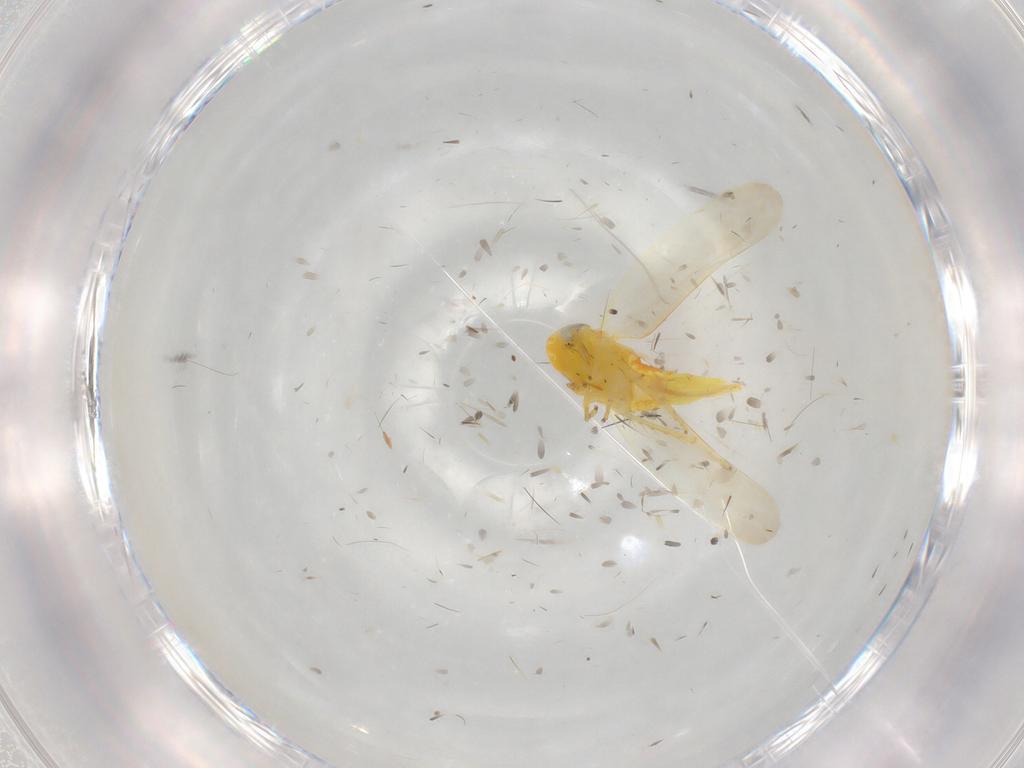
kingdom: Animalia
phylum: Arthropoda
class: Insecta
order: Hemiptera
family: Cicadellidae
